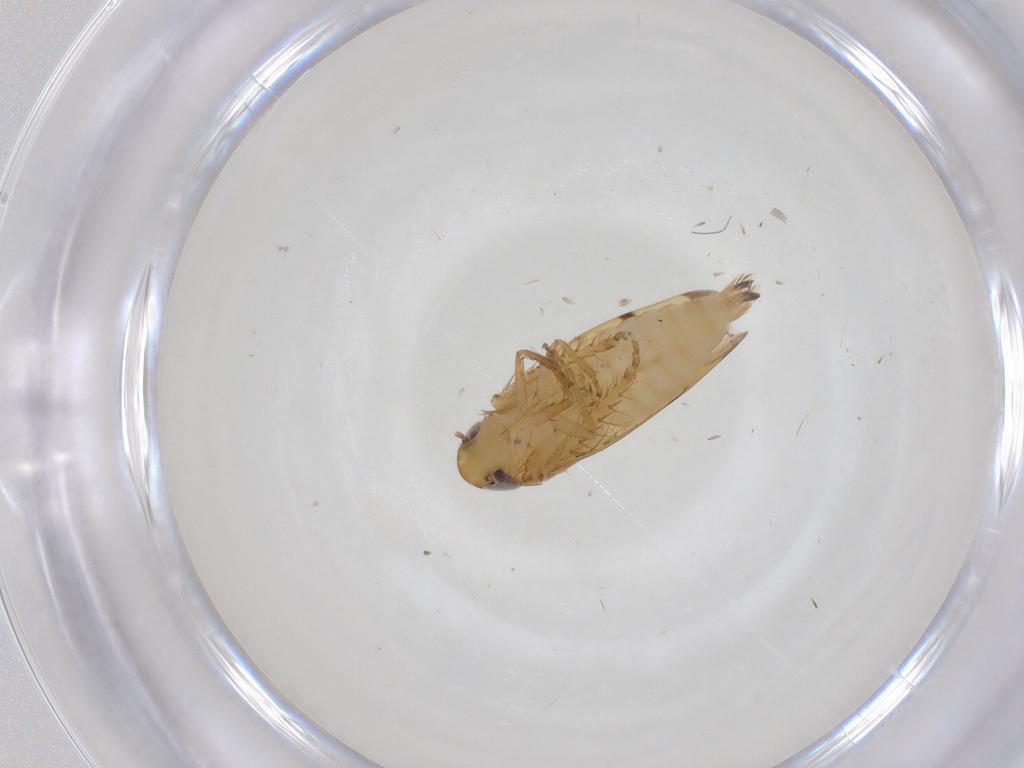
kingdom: Animalia
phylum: Arthropoda
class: Insecta
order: Hemiptera
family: Cicadellidae
